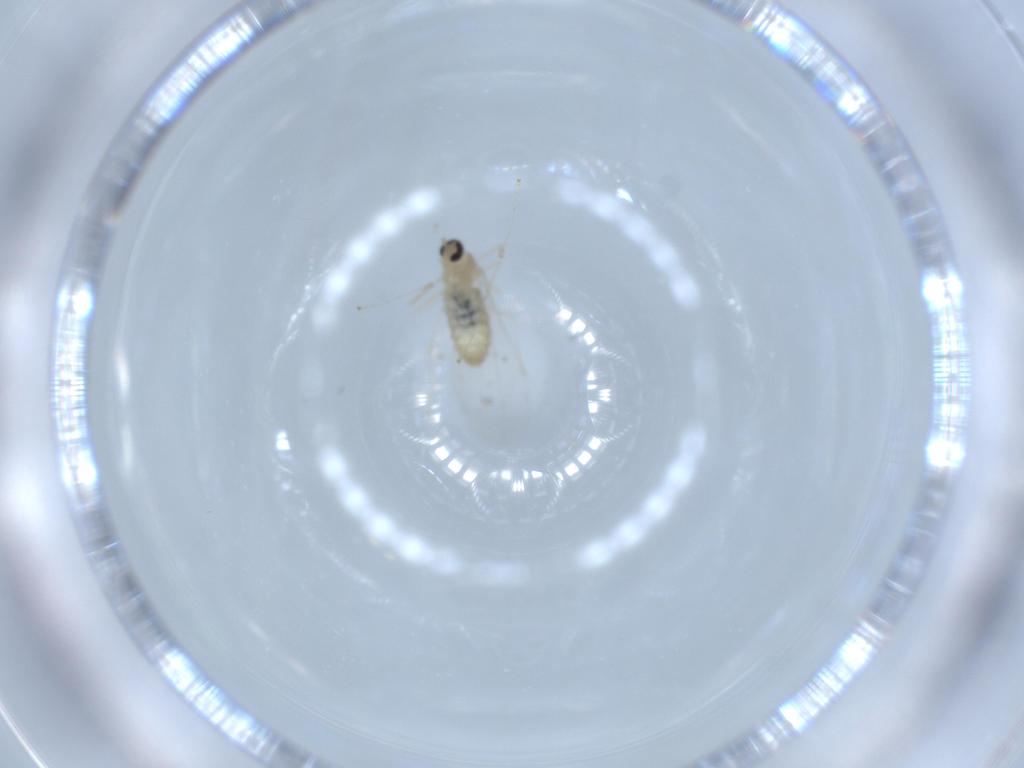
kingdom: Animalia
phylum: Arthropoda
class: Insecta
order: Diptera
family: Cecidomyiidae
